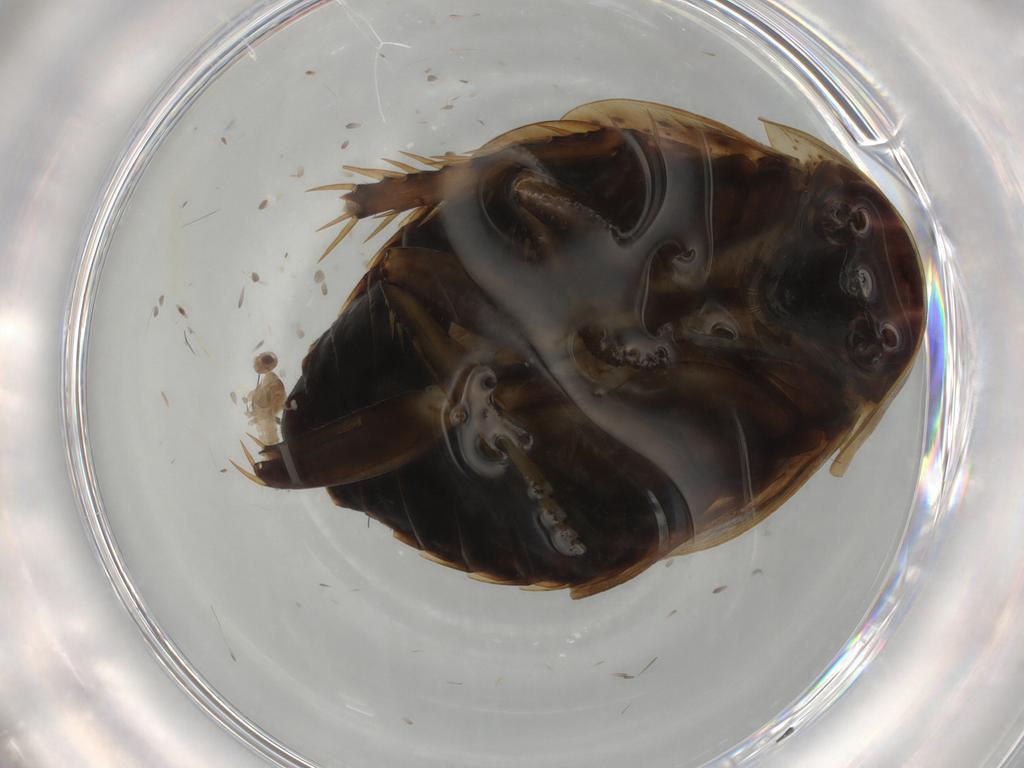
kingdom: Animalia
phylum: Arthropoda
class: Insecta
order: Blattodea
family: Ectobiidae
